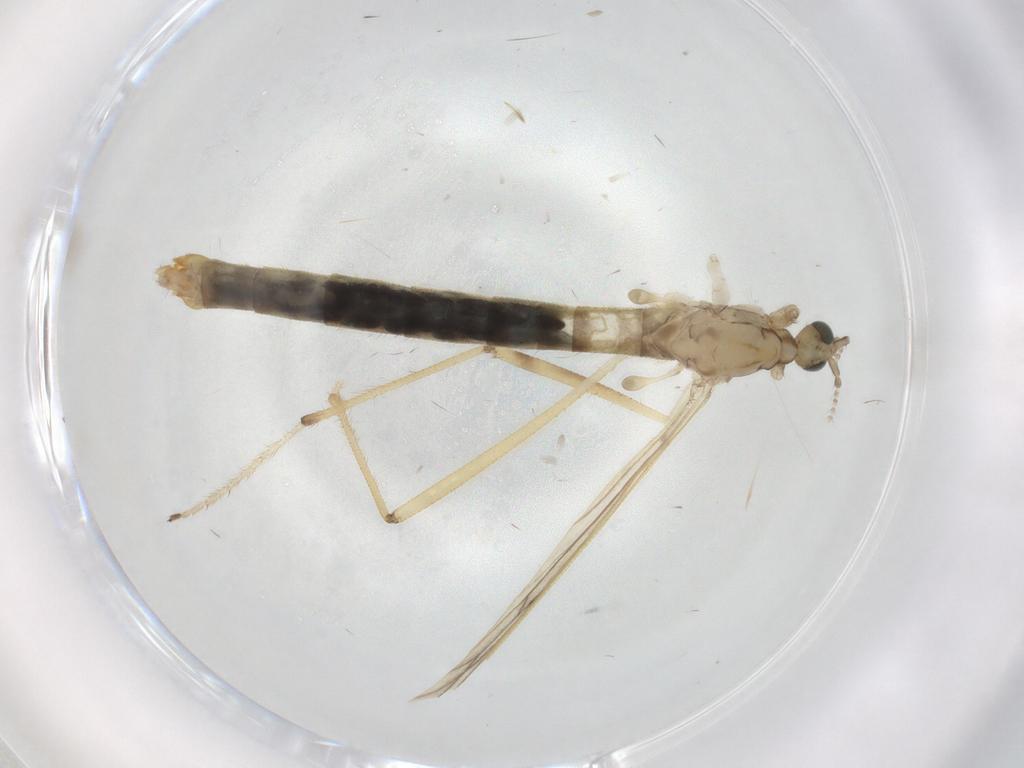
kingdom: Animalia
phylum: Arthropoda
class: Insecta
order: Diptera
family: Limoniidae
